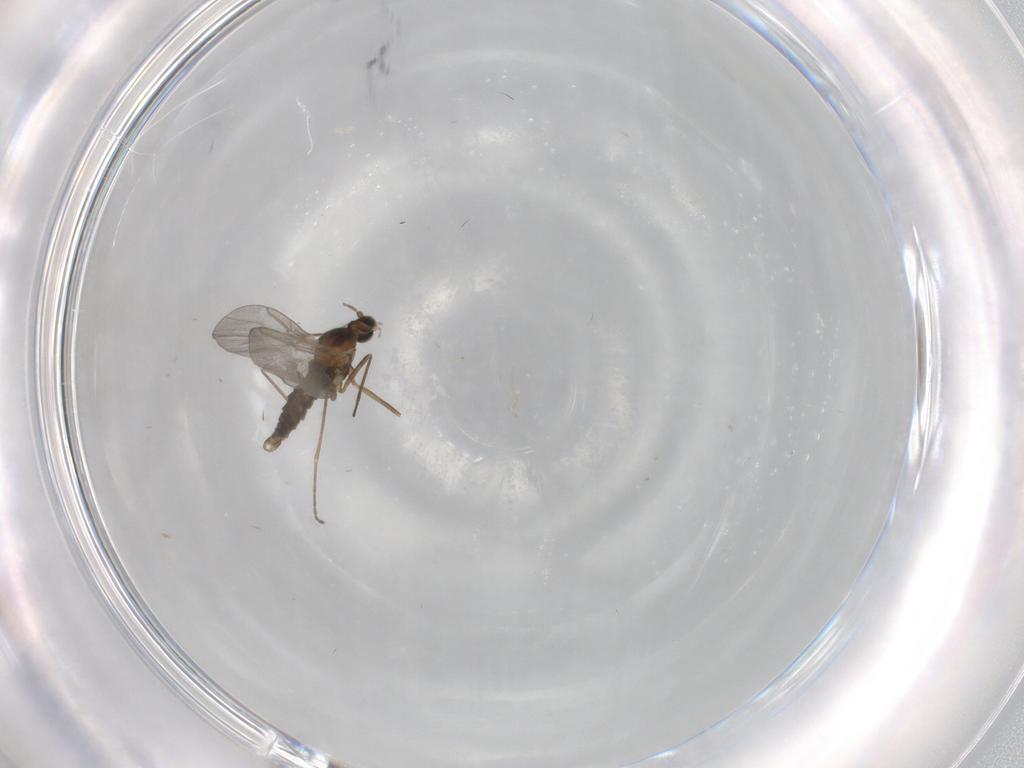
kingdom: Animalia
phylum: Arthropoda
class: Insecta
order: Diptera
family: Cecidomyiidae
